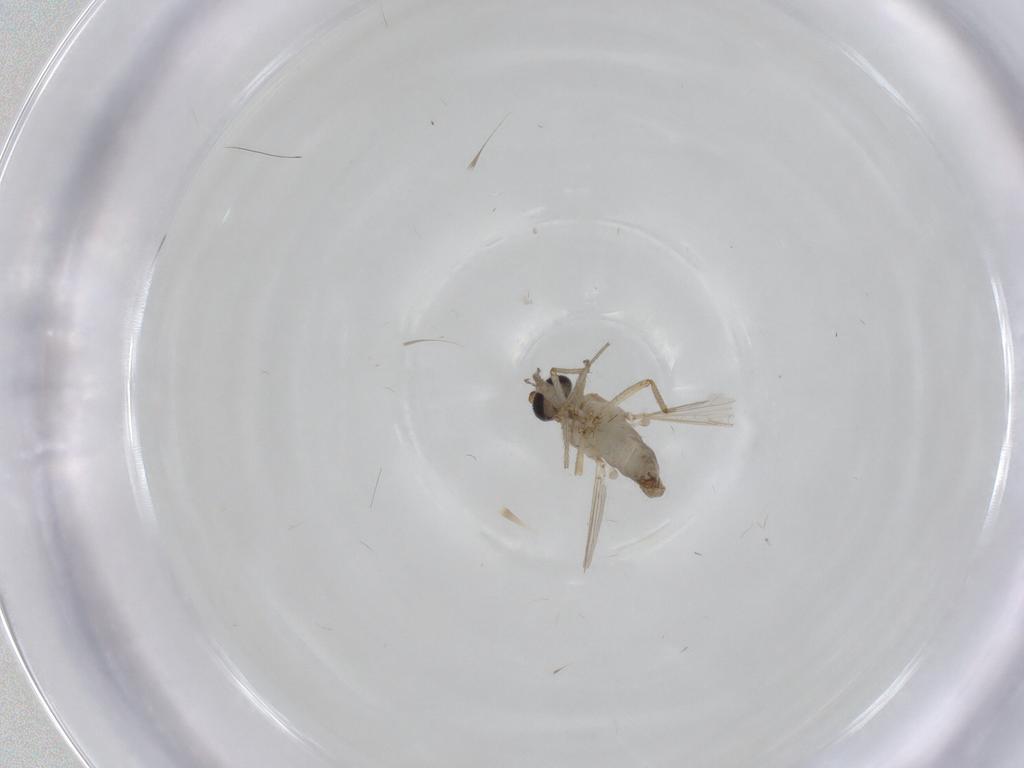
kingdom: Animalia
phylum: Arthropoda
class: Insecta
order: Diptera
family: Ceratopogonidae
